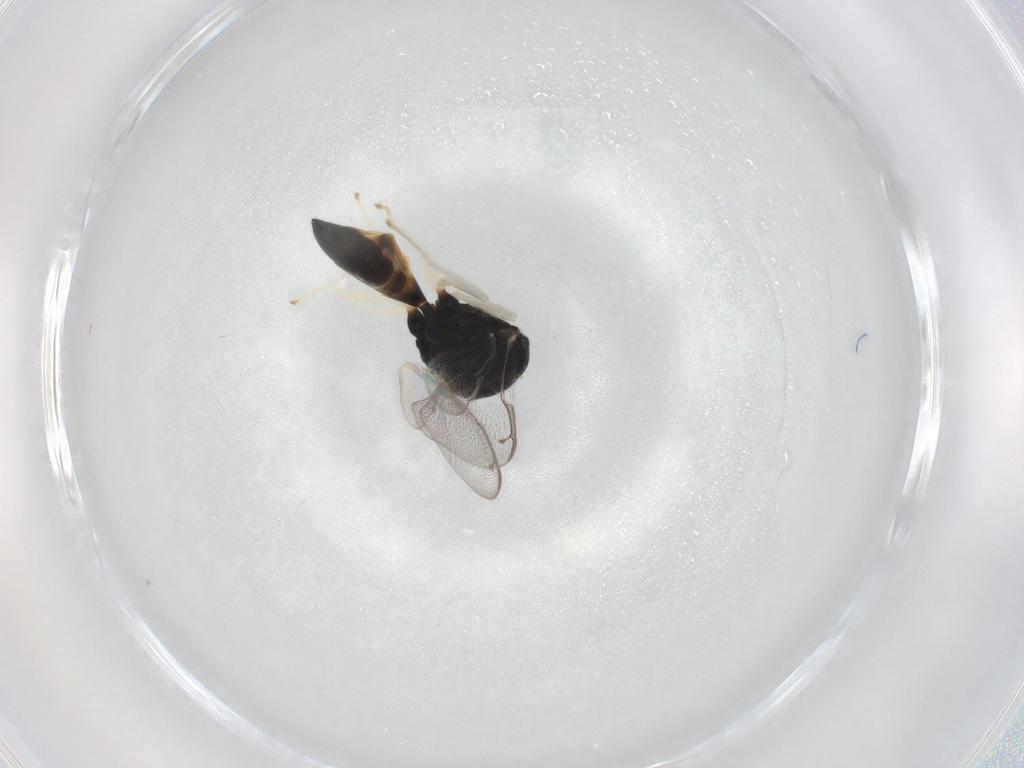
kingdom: Animalia
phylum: Arthropoda
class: Insecta
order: Hymenoptera
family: Pteromalidae
